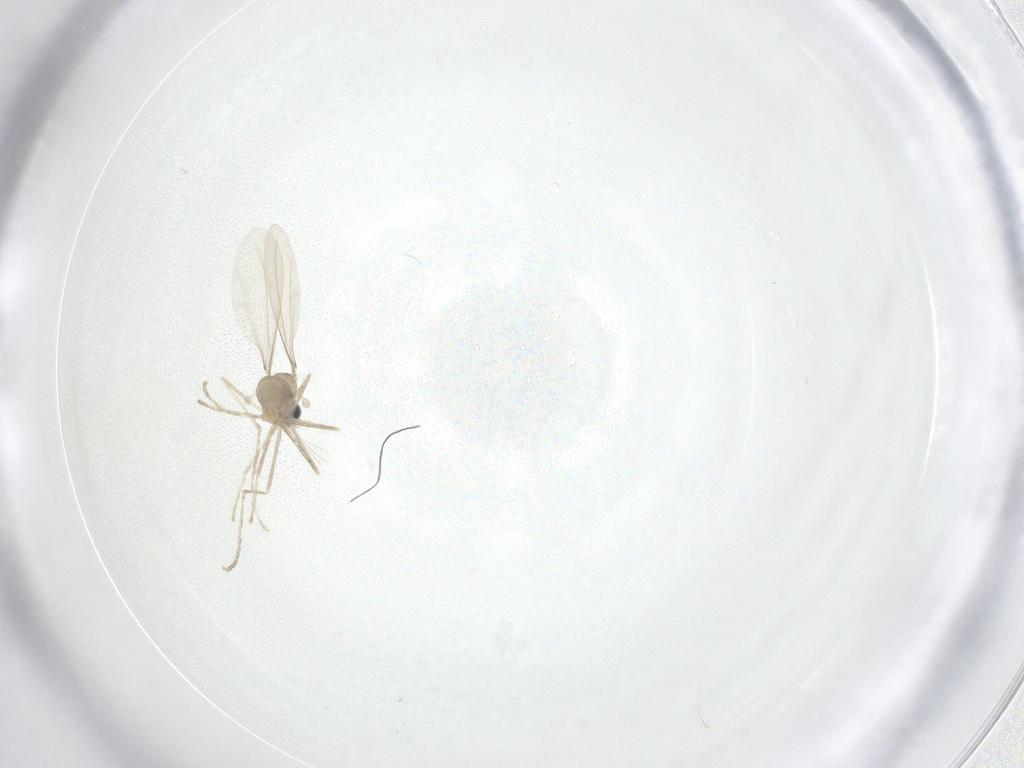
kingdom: Animalia
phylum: Arthropoda
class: Insecta
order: Diptera
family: Cecidomyiidae
